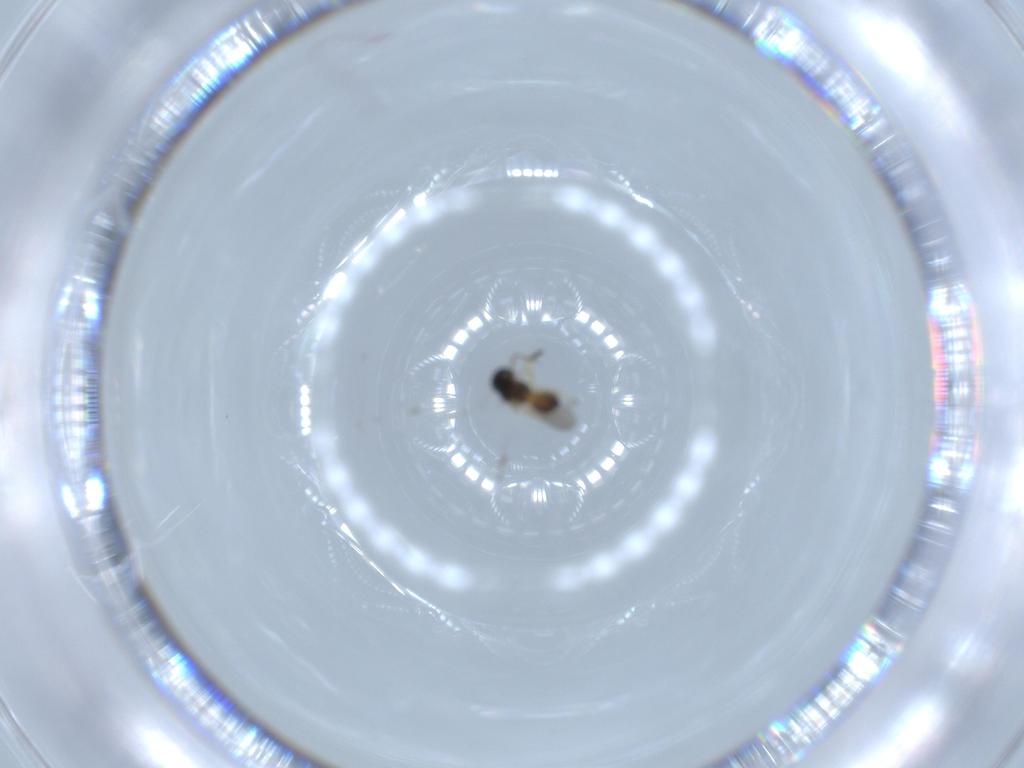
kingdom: Animalia
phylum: Arthropoda
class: Insecta
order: Hymenoptera
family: Scelionidae
